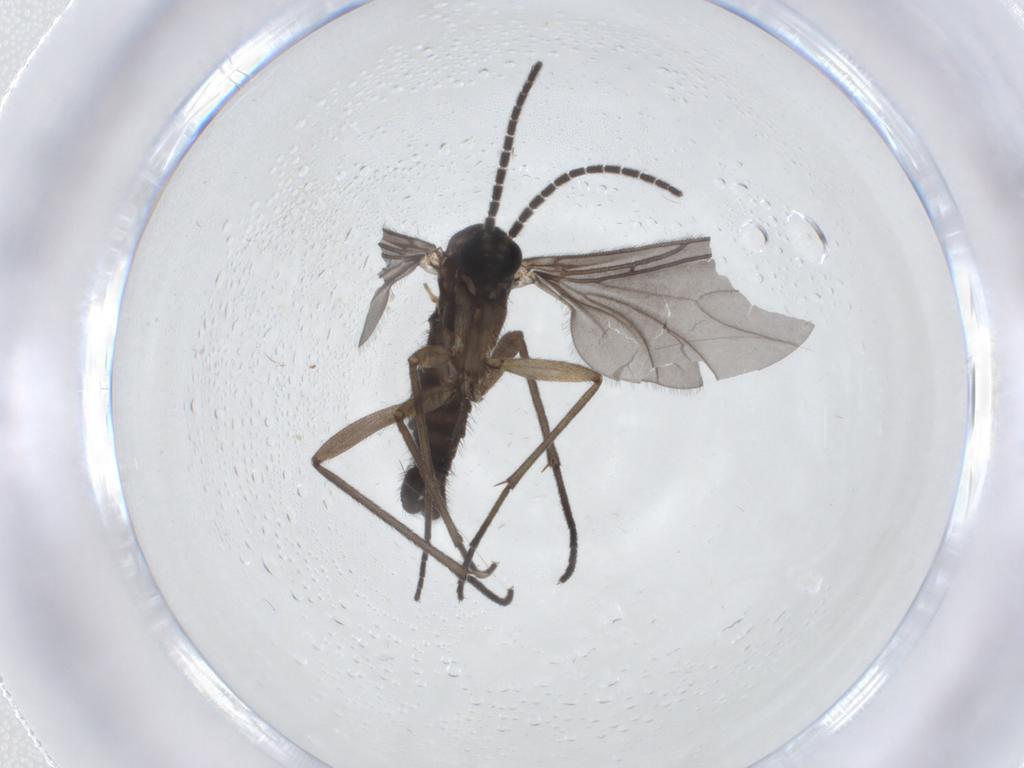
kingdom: Animalia
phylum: Arthropoda
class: Insecta
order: Diptera
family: Sciaridae
